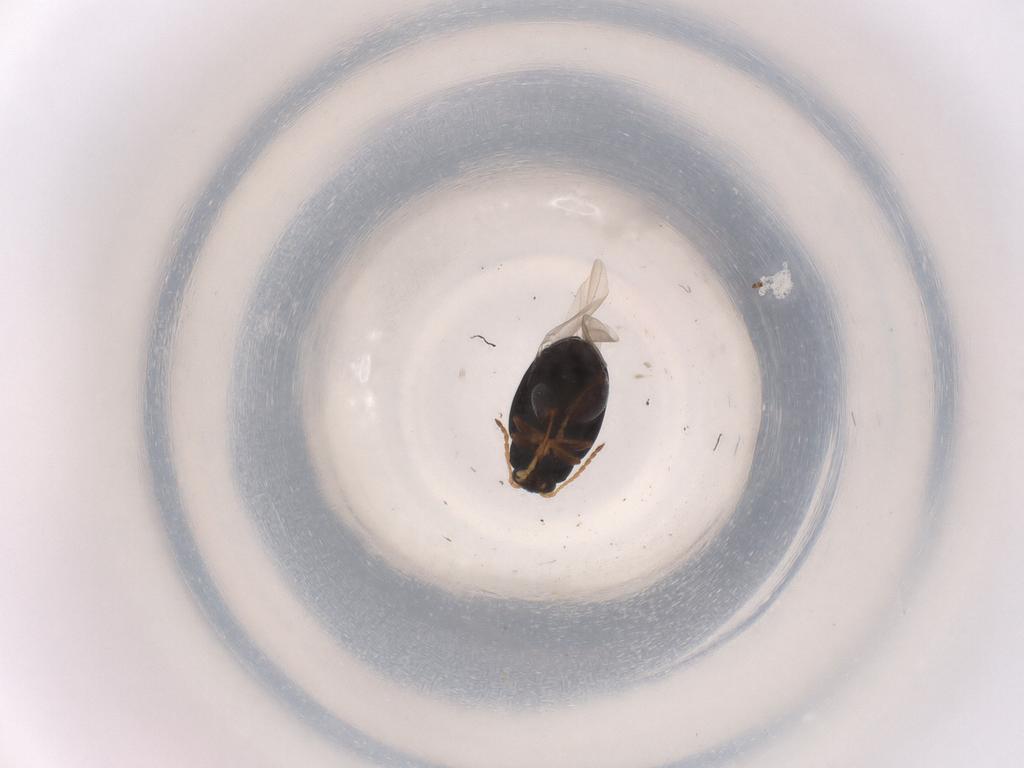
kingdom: Animalia
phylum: Arthropoda
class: Insecta
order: Coleoptera
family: Chrysomelidae
